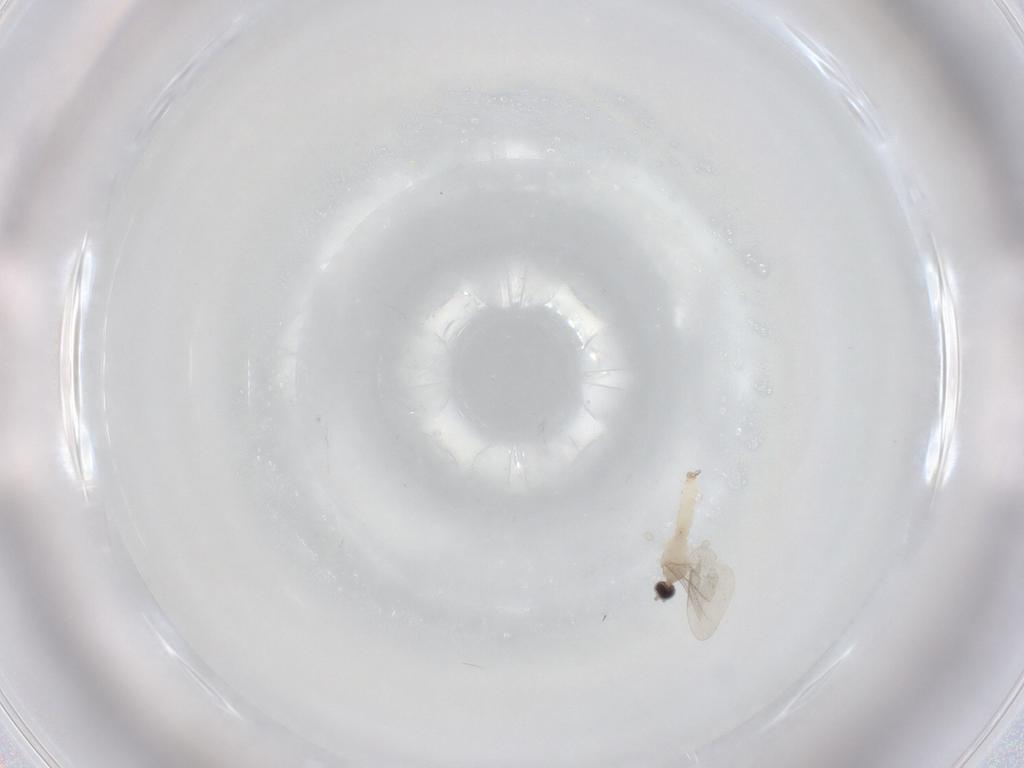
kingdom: Animalia
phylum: Arthropoda
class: Insecta
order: Diptera
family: Cecidomyiidae
